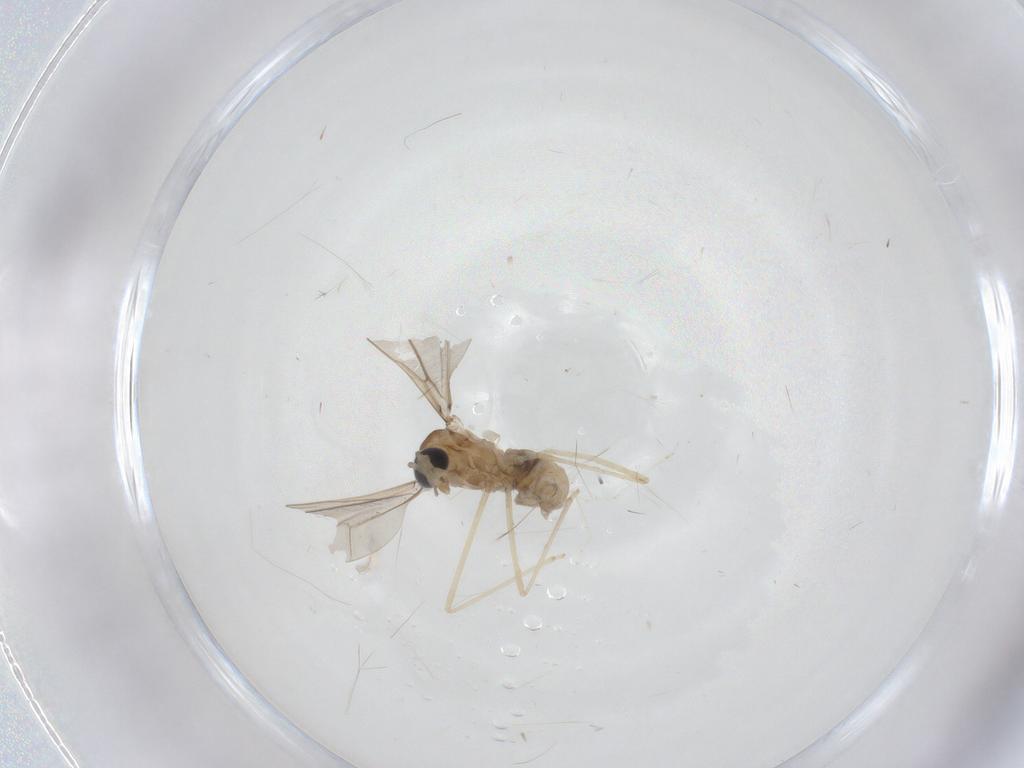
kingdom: Animalia
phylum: Arthropoda
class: Insecta
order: Diptera
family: Cecidomyiidae
